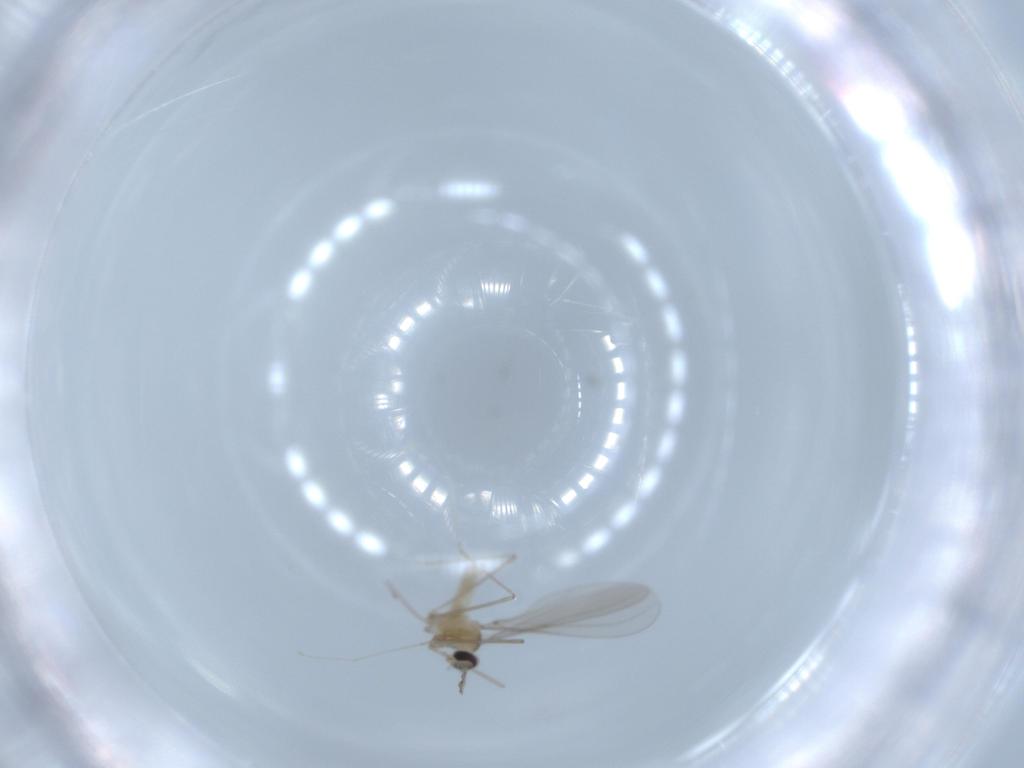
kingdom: Animalia
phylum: Arthropoda
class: Insecta
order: Diptera
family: Cecidomyiidae
